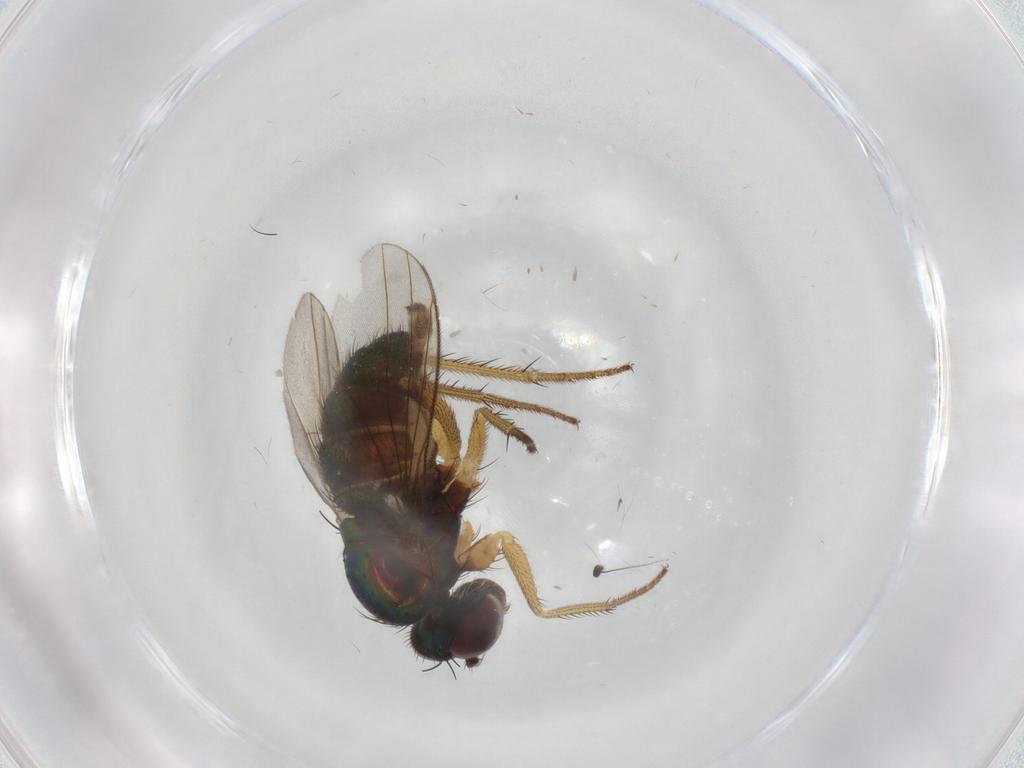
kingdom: Animalia
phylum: Arthropoda
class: Insecta
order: Diptera
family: Dolichopodidae
